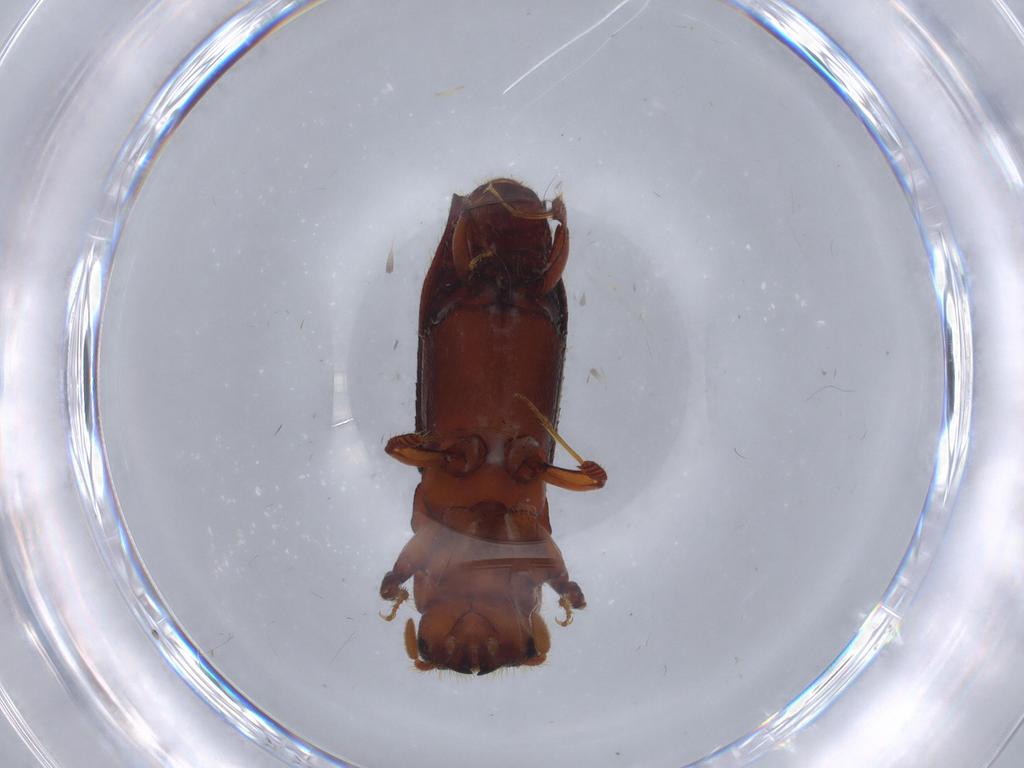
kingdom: Animalia
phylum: Arthropoda
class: Insecta
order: Coleoptera
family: Curculionidae
